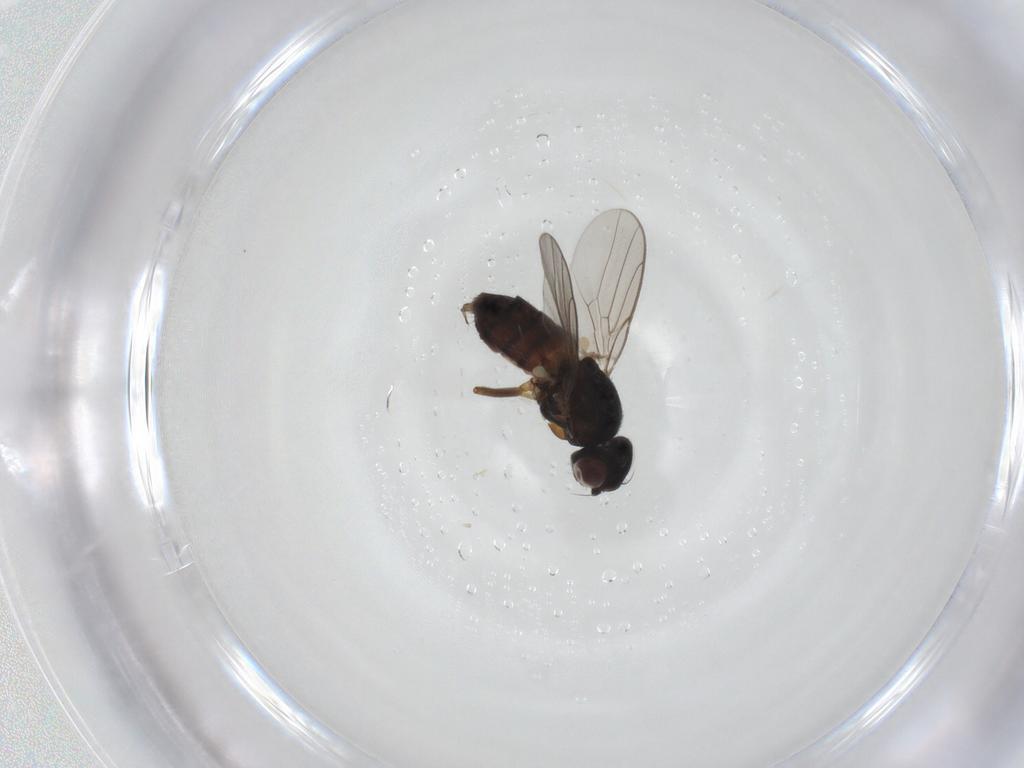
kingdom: Animalia
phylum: Arthropoda
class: Insecta
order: Diptera
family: Chloropidae
